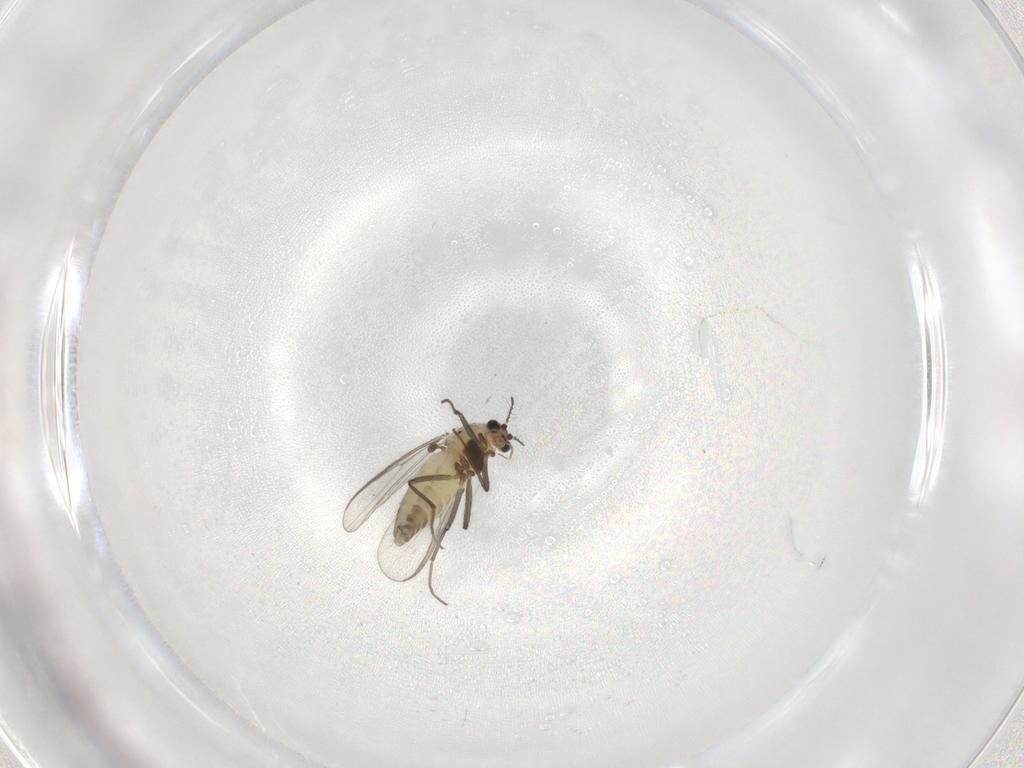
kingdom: Animalia
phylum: Arthropoda
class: Insecta
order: Diptera
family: Chironomidae
